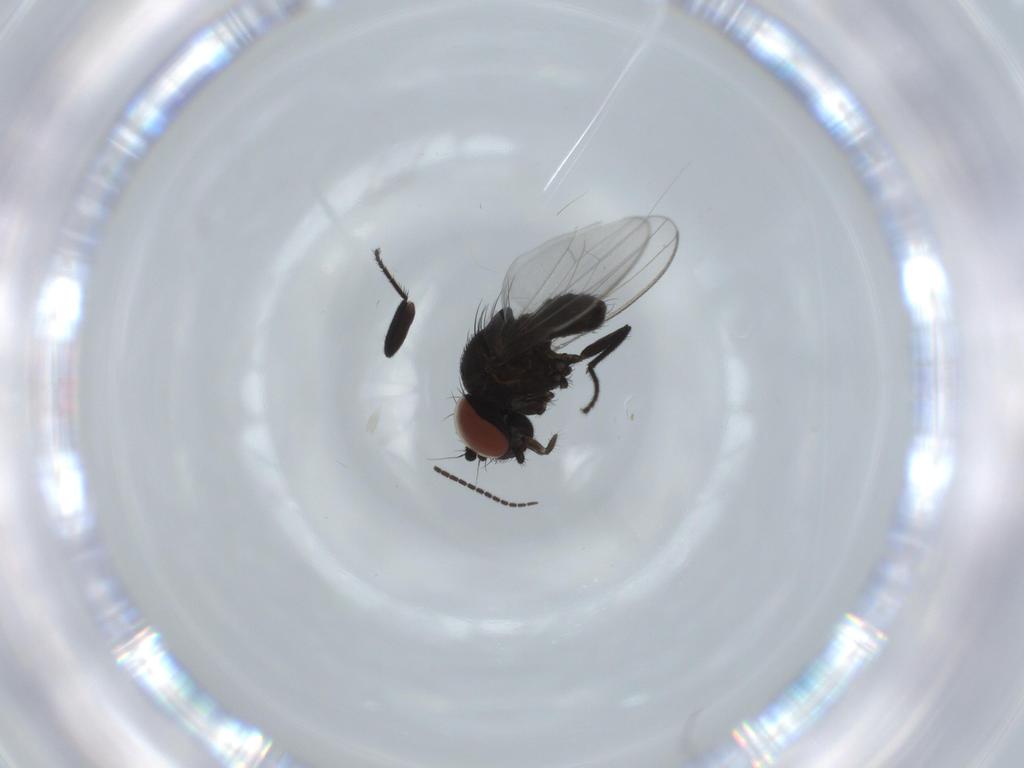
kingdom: Animalia
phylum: Arthropoda
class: Insecta
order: Diptera
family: Sciaridae
